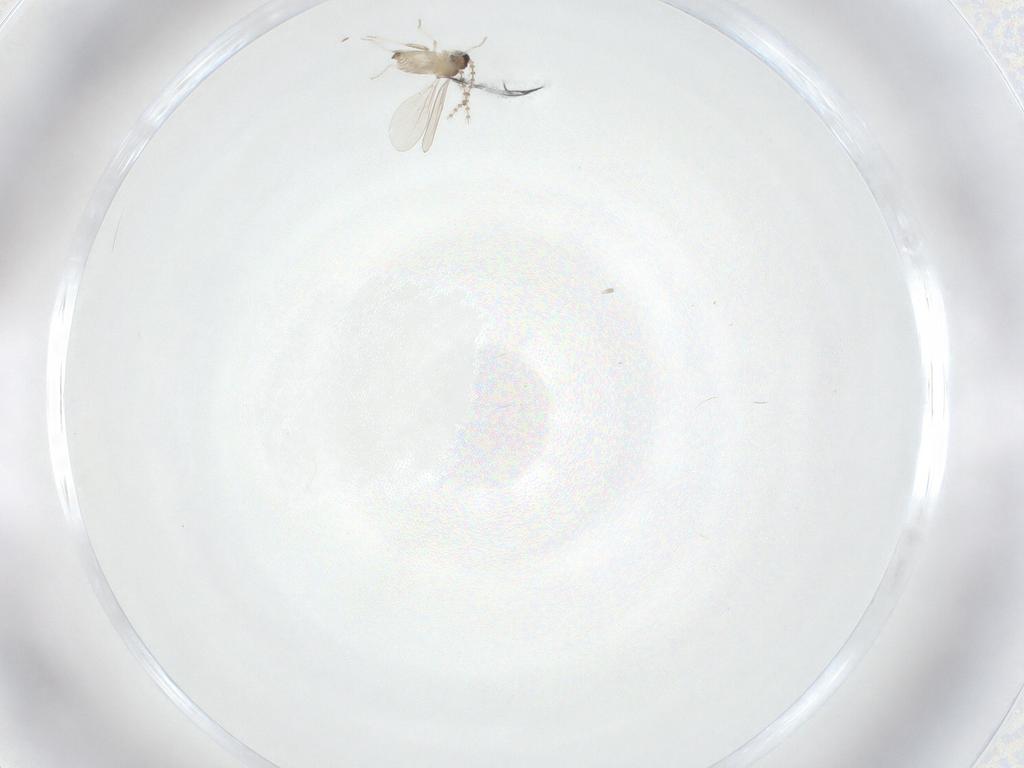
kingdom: Animalia
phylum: Arthropoda
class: Insecta
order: Diptera
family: Cecidomyiidae
